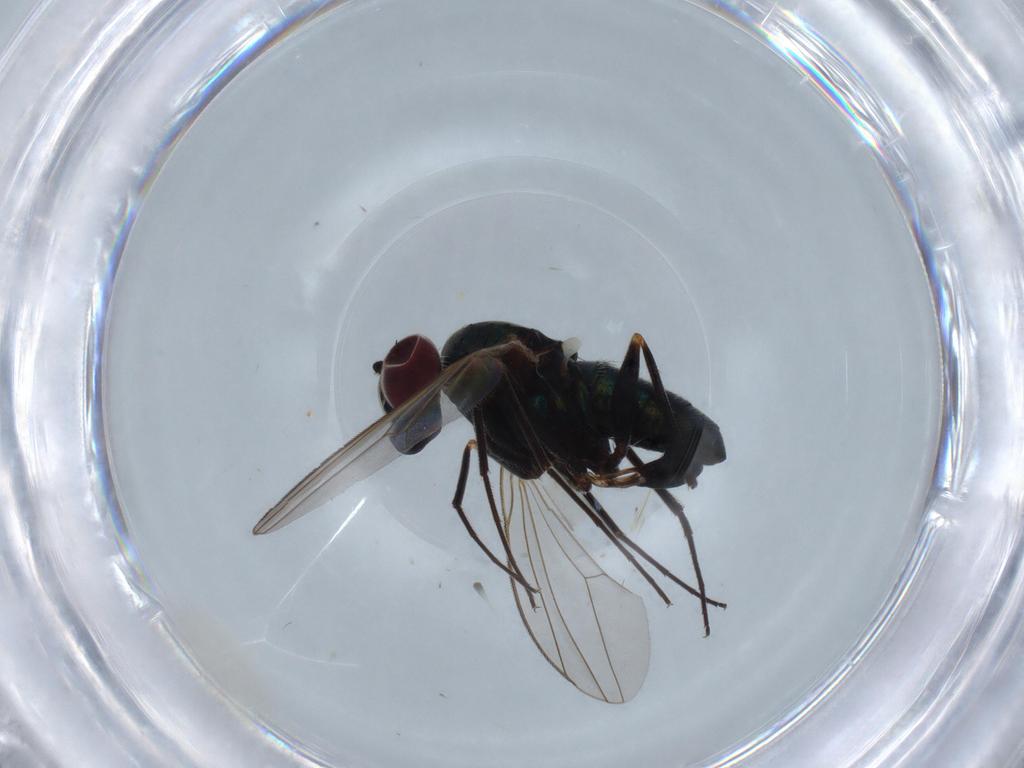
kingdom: Animalia
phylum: Arthropoda
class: Insecta
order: Diptera
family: Dolichopodidae
